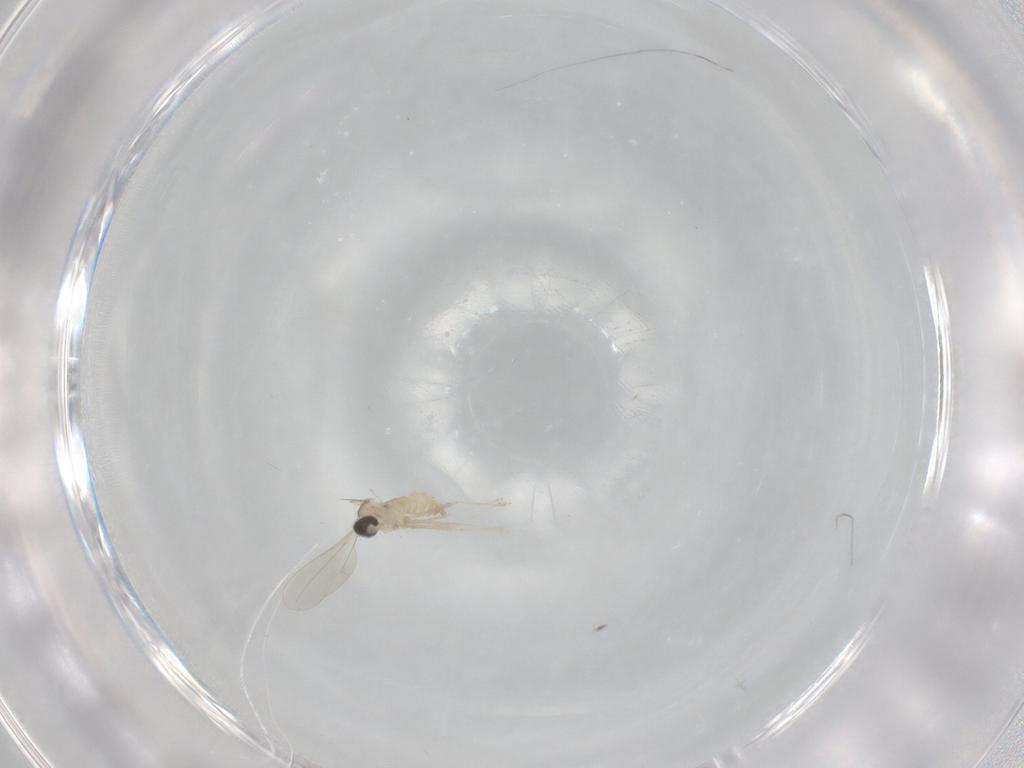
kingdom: Animalia
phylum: Arthropoda
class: Insecta
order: Diptera
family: Cecidomyiidae
